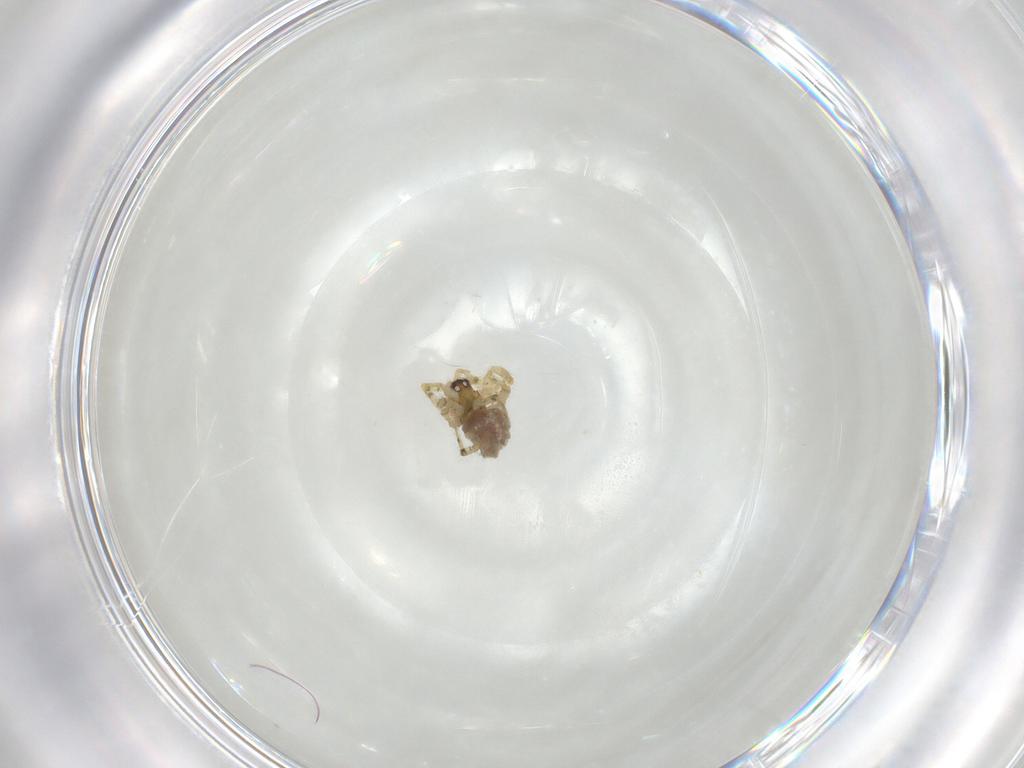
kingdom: Animalia
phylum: Arthropoda
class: Arachnida
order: Araneae
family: Theridiidae
